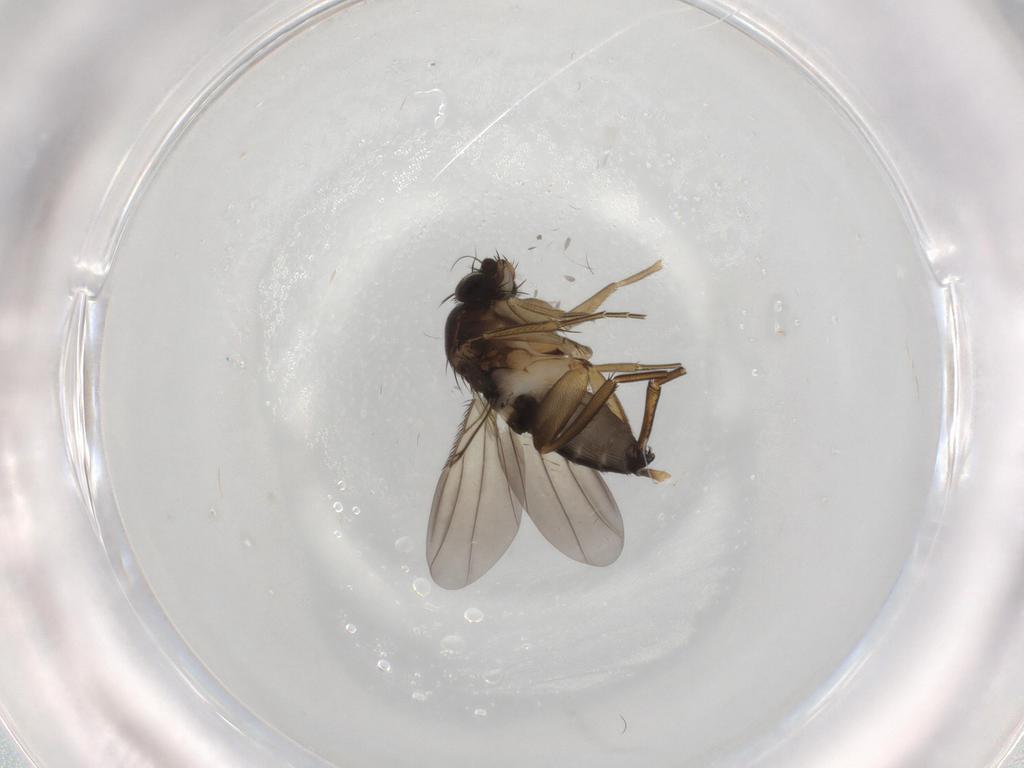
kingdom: Animalia
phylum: Arthropoda
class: Insecta
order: Diptera
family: Phoridae
